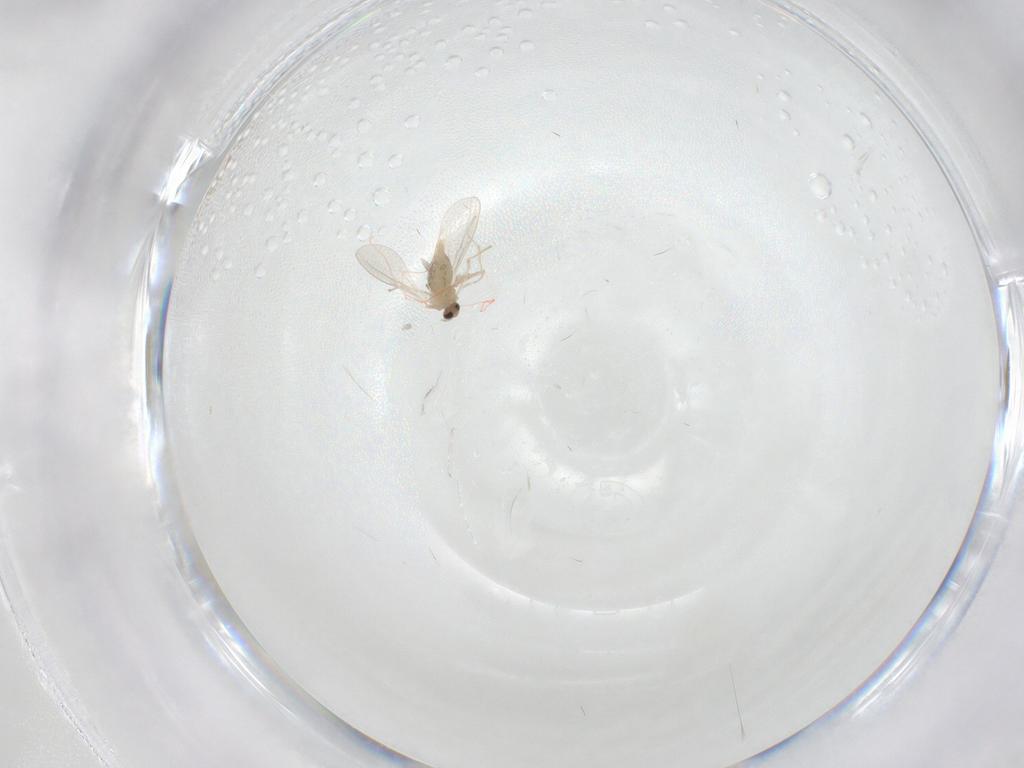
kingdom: Animalia
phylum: Arthropoda
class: Insecta
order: Diptera
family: Cecidomyiidae
